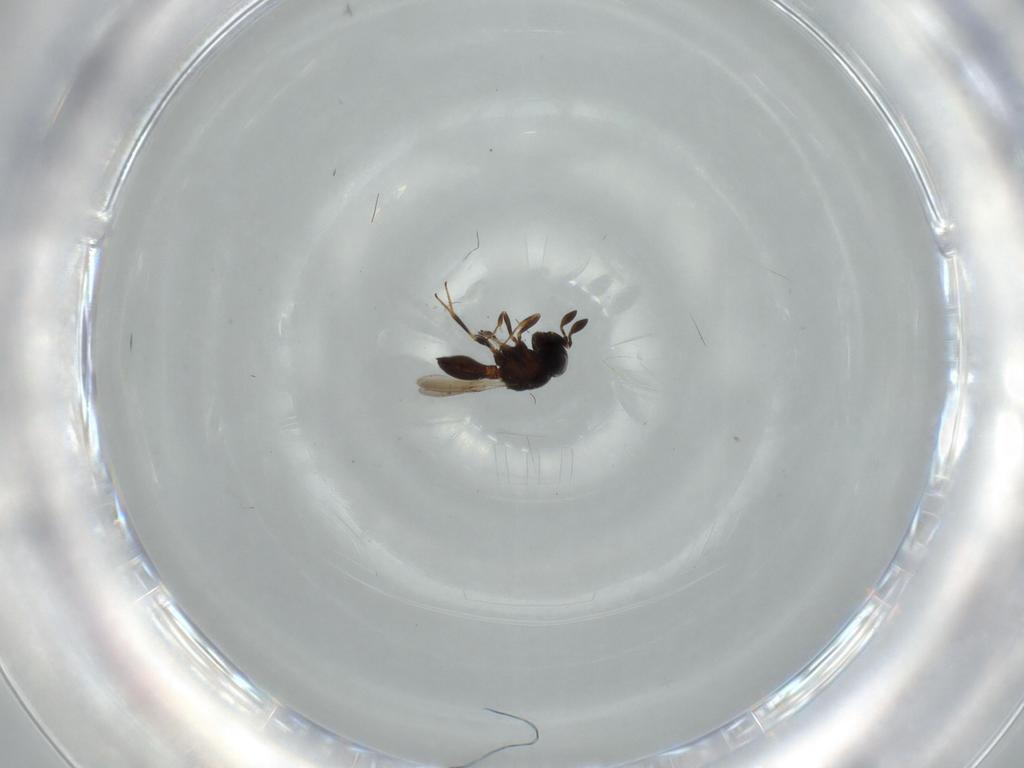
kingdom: Animalia
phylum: Arthropoda
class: Insecta
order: Hymenoptera
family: Scelionidae
